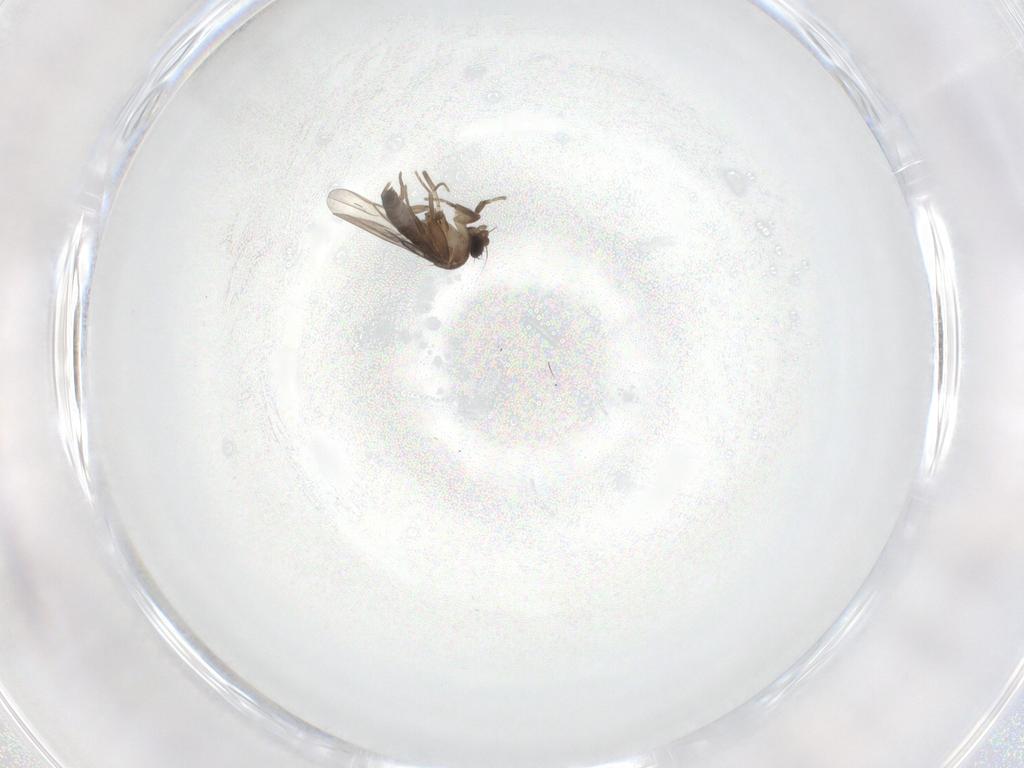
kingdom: Animalia
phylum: Arthropoda
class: Insecta
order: Diptera
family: Phoridae
